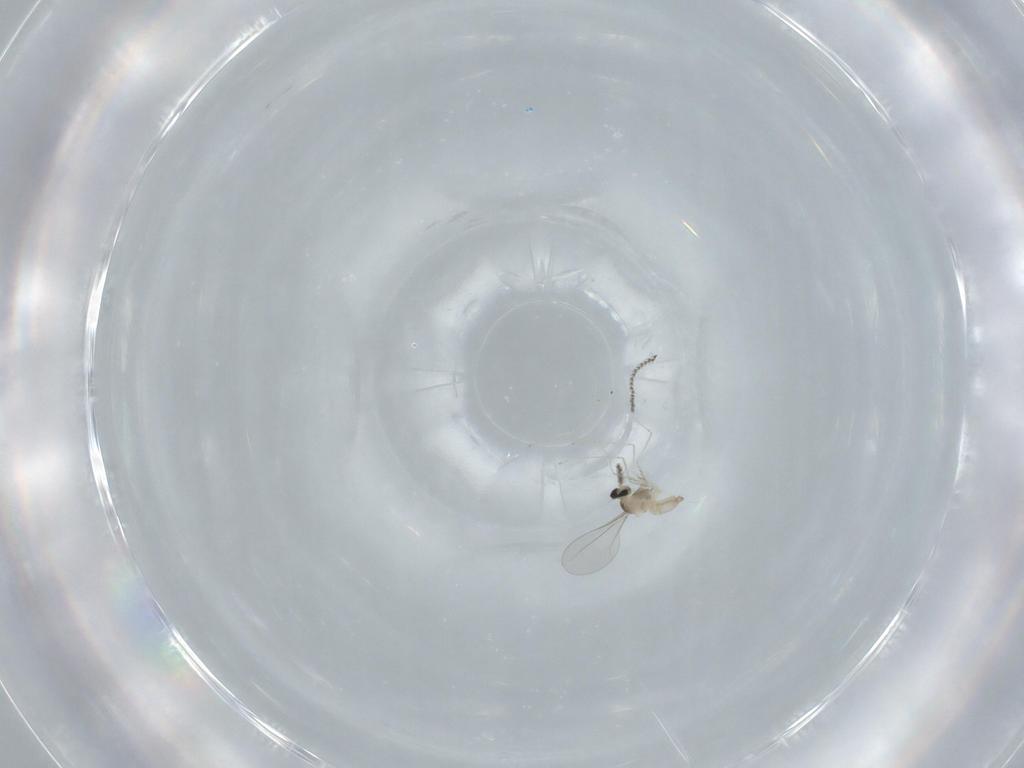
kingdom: Animalia
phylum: Arthropoda
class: Insecta
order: Diptera
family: Cecidomyiidae
